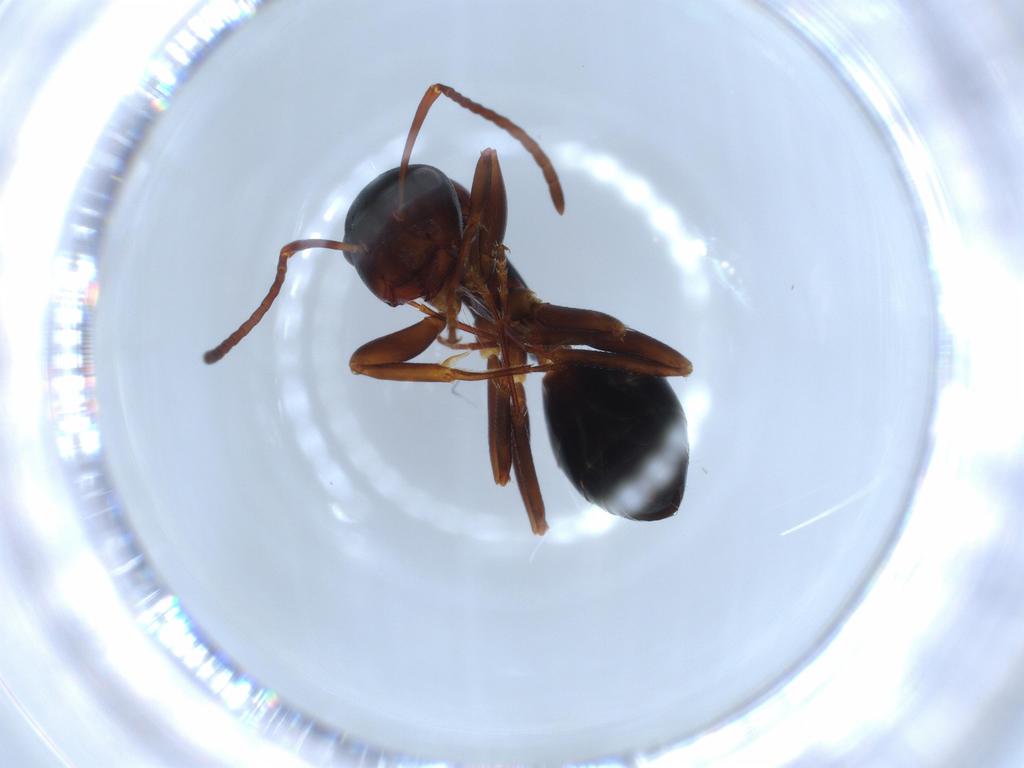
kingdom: Animalia
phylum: Arthropoda
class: Insecta
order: Hymenoptera
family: Formicidae
